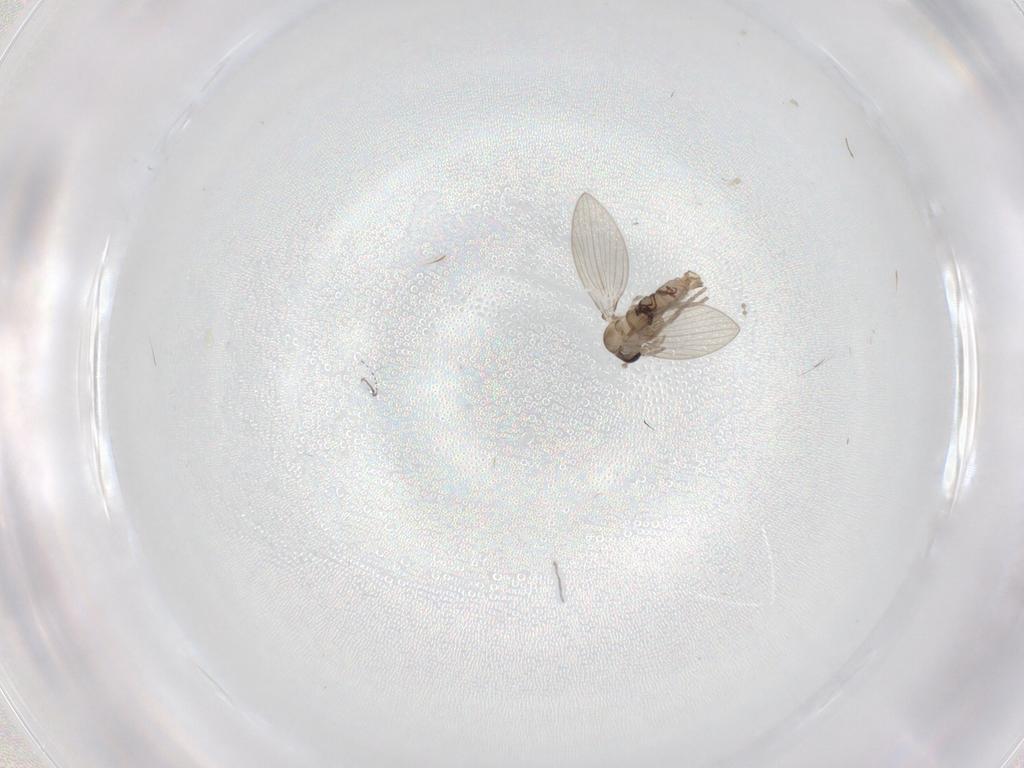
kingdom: Animalia
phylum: Arthropoda
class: Insecta
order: Diptera
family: Psychodidae
